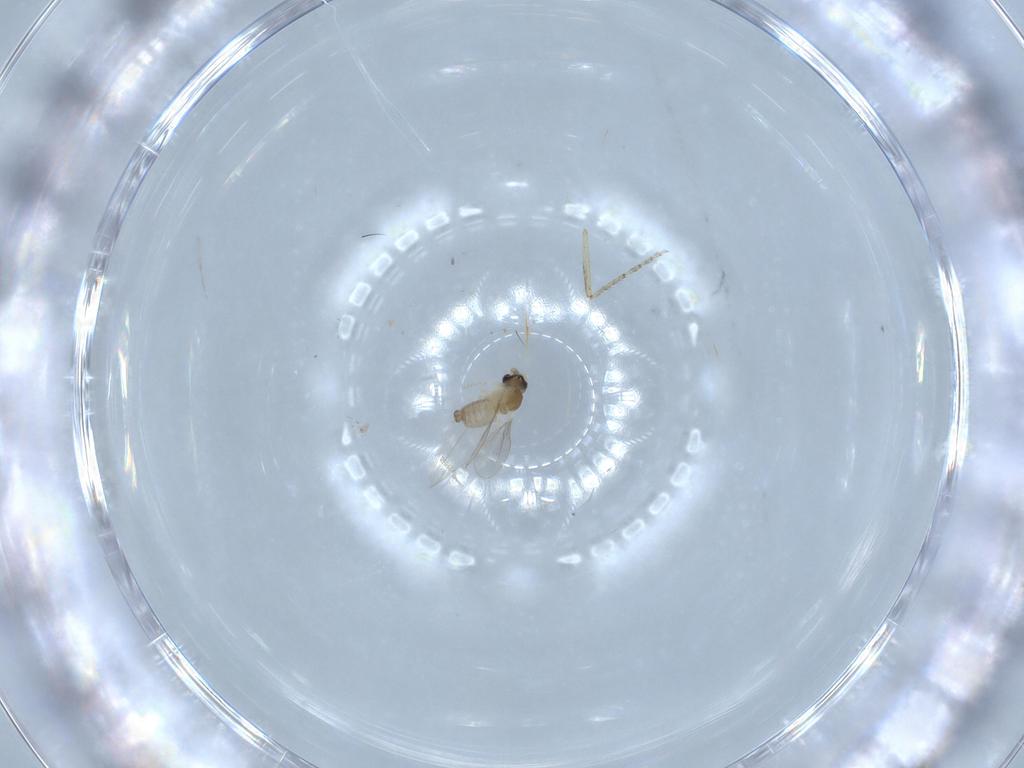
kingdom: Animalia
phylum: Arthropoda
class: Insecta
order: Diptera
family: Cecidomyiidae
